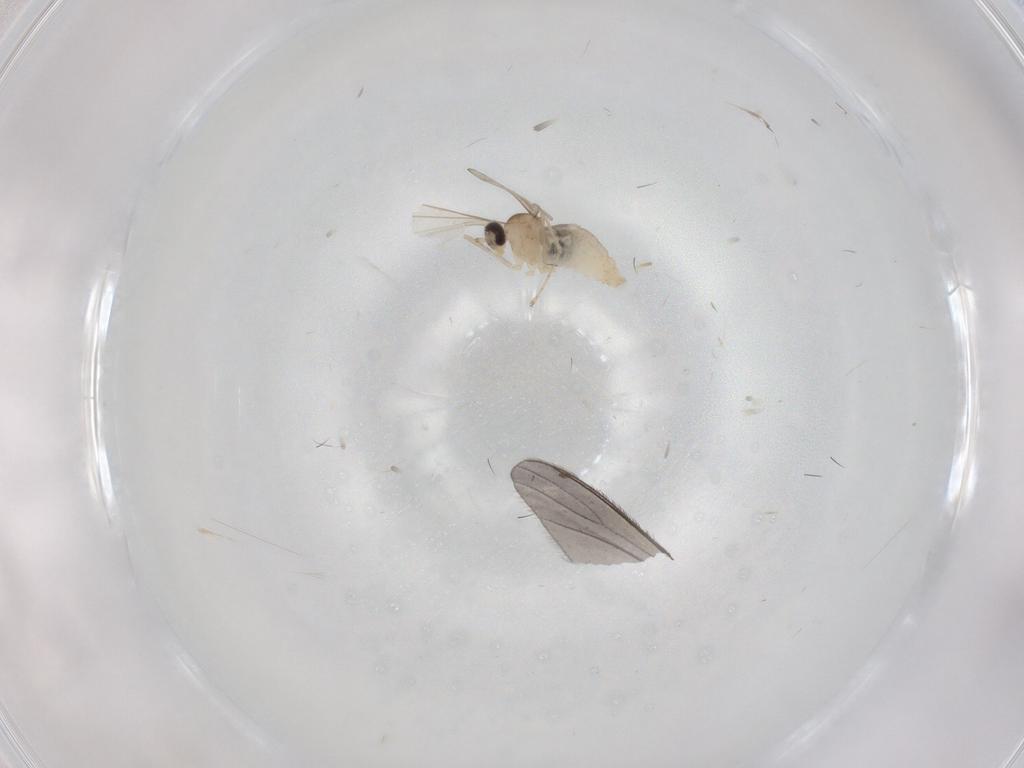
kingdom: Animalia
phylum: Arthropoda
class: Insecta
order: Diptera
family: Cecidomyiidae
